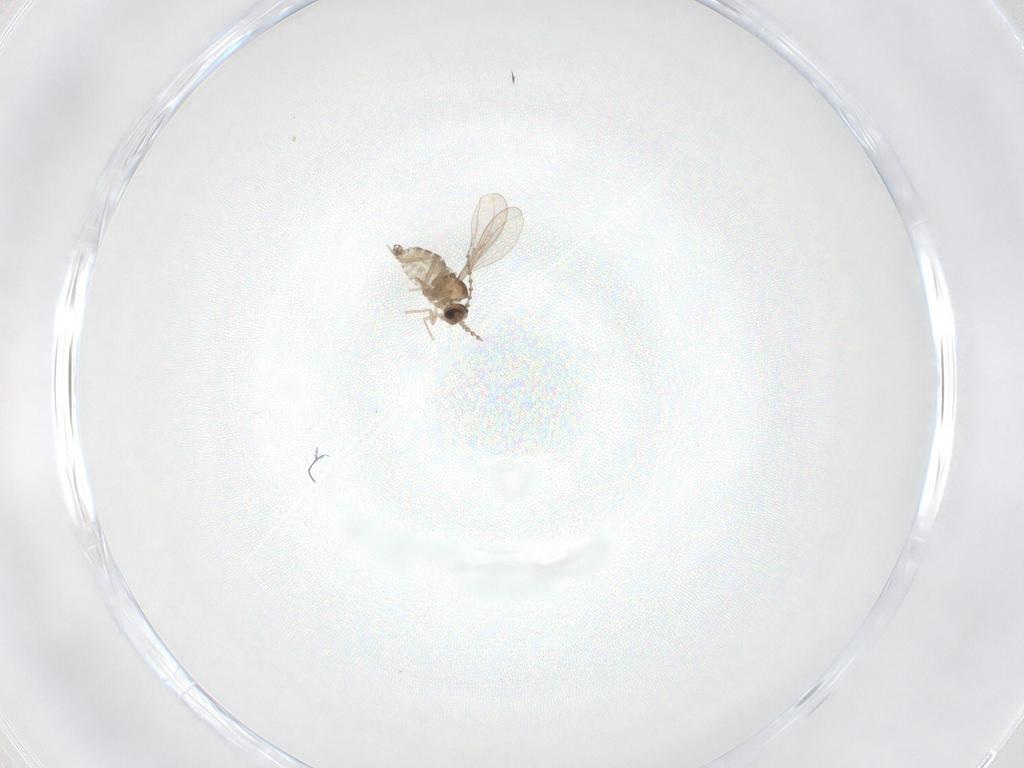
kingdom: Animalia
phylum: Arthropoda
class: Insecta
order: Diptera
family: Cecidomyiidae
